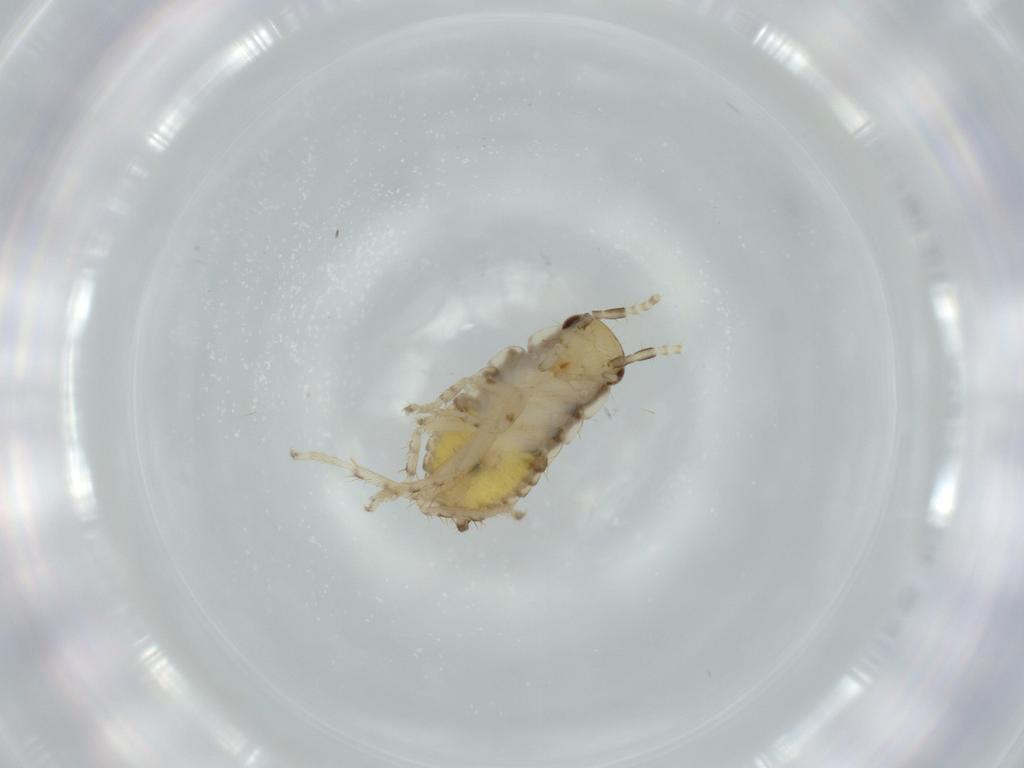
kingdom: Animalia
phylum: Arthropoda
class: Insecta
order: Blattodea
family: Ectobiidae
